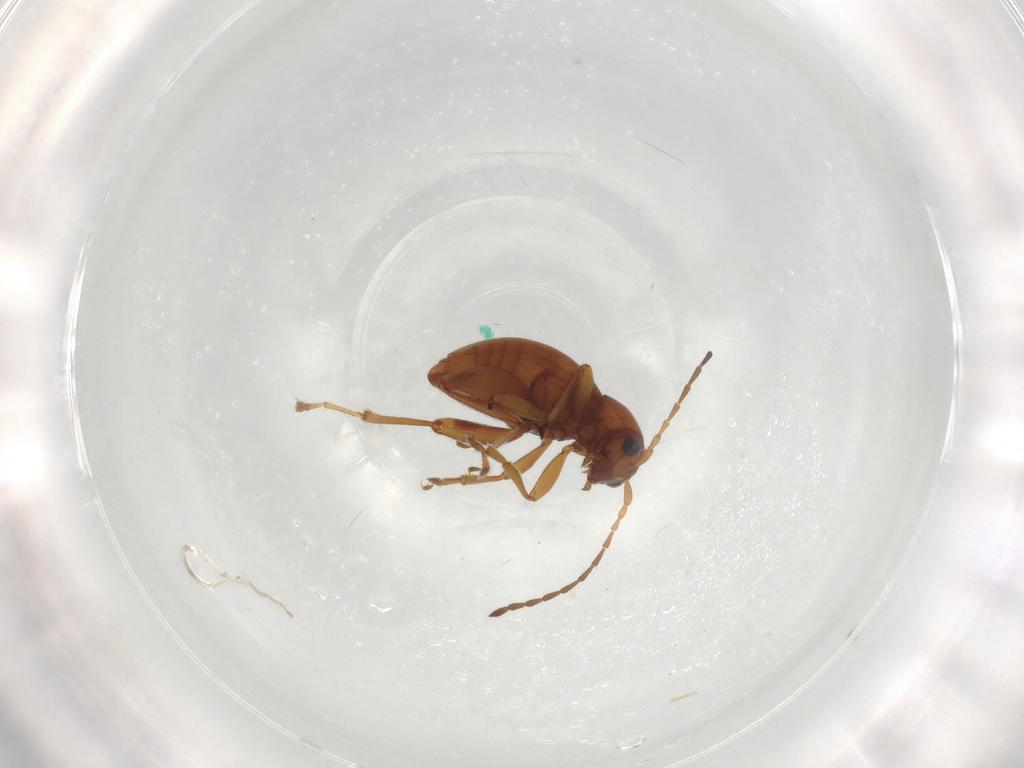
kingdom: Animalia
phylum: Arthropoda
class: Insecta
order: Coleoptera
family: Chrysomelidae
